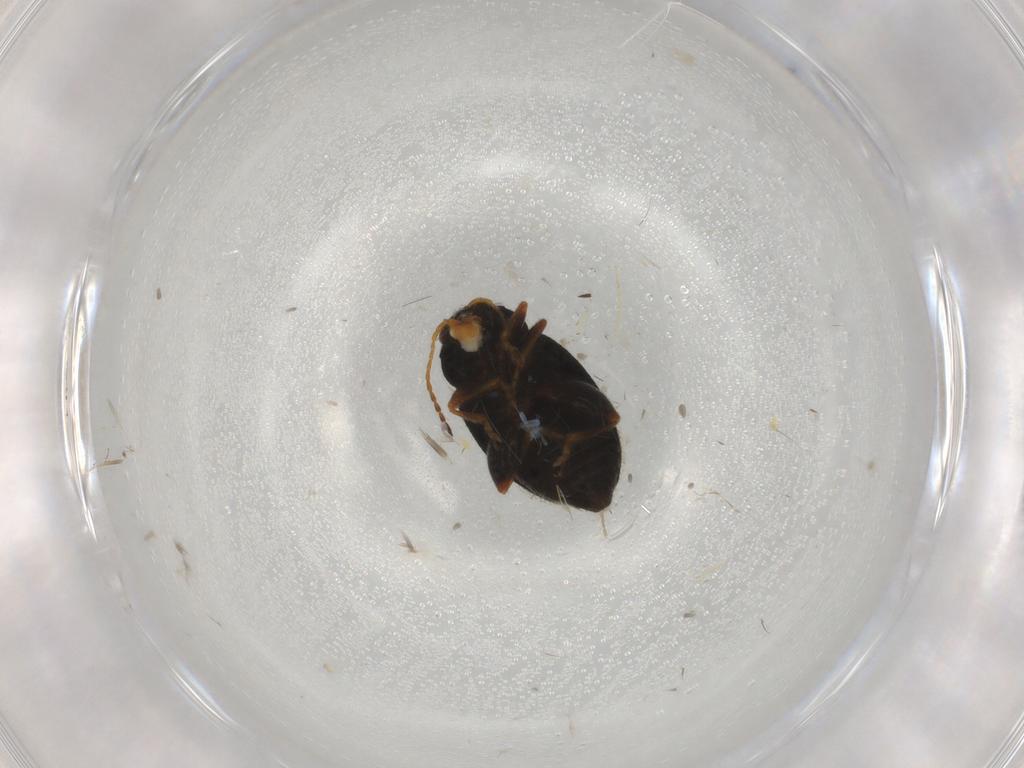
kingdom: Animalia
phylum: Arthropoda
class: Insecta
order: Coleoptera
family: Chrysomelidae
